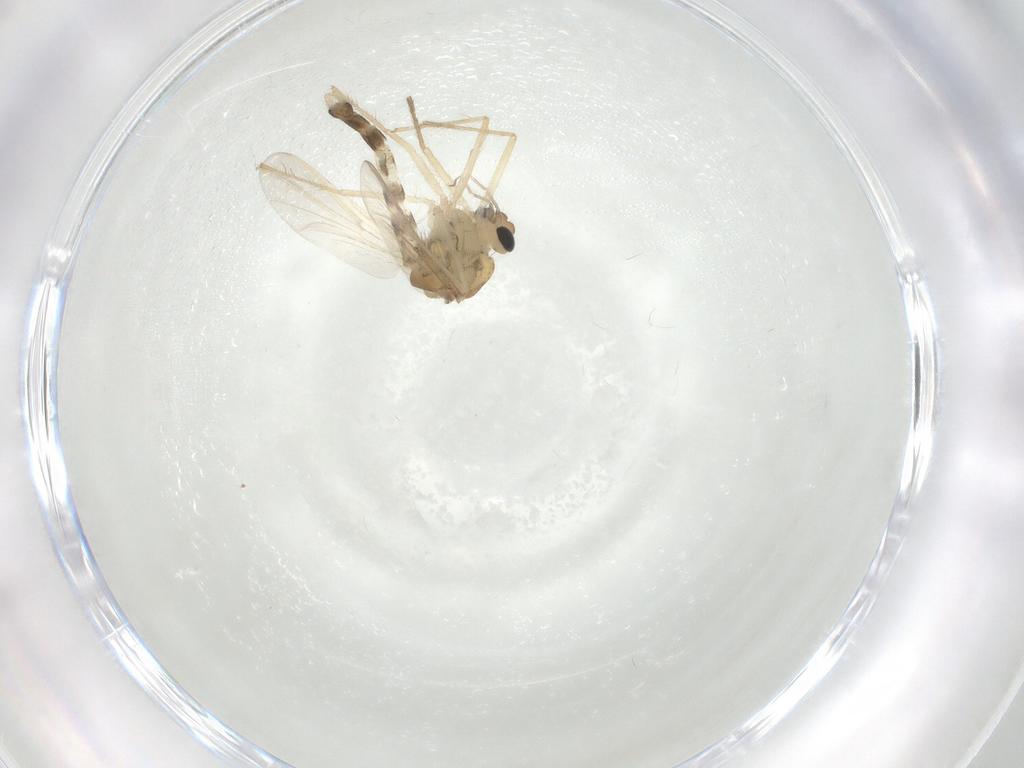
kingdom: Animalia
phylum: Arthropoda
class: Insecta
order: Diptera
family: Chironomidae
